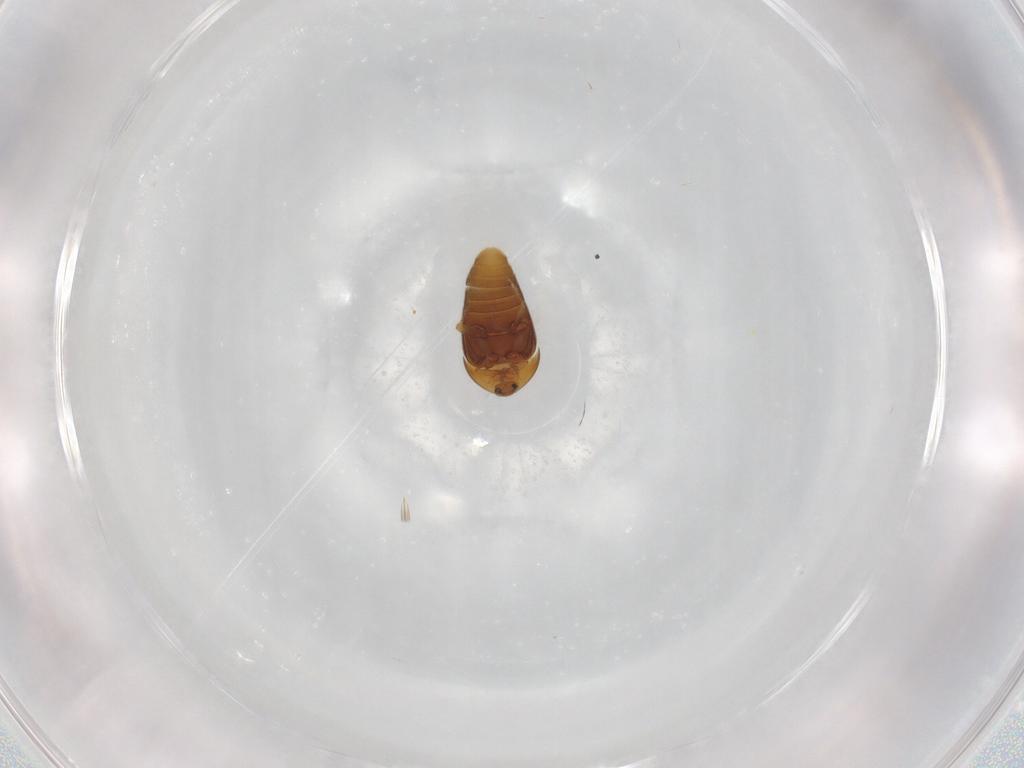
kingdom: Animalia
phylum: Arthropoda
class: Insecta
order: Coleoptera
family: Corylophidae
